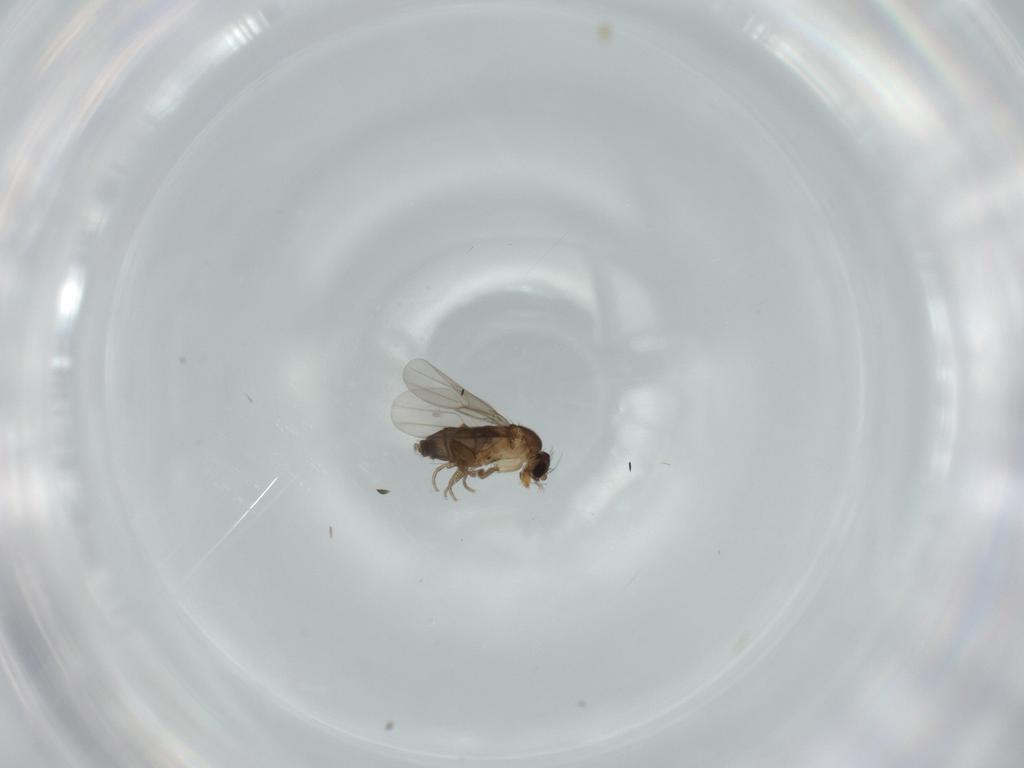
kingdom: Animalia
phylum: Arthropoda
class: Insecta
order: Diptera
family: Phoridae
